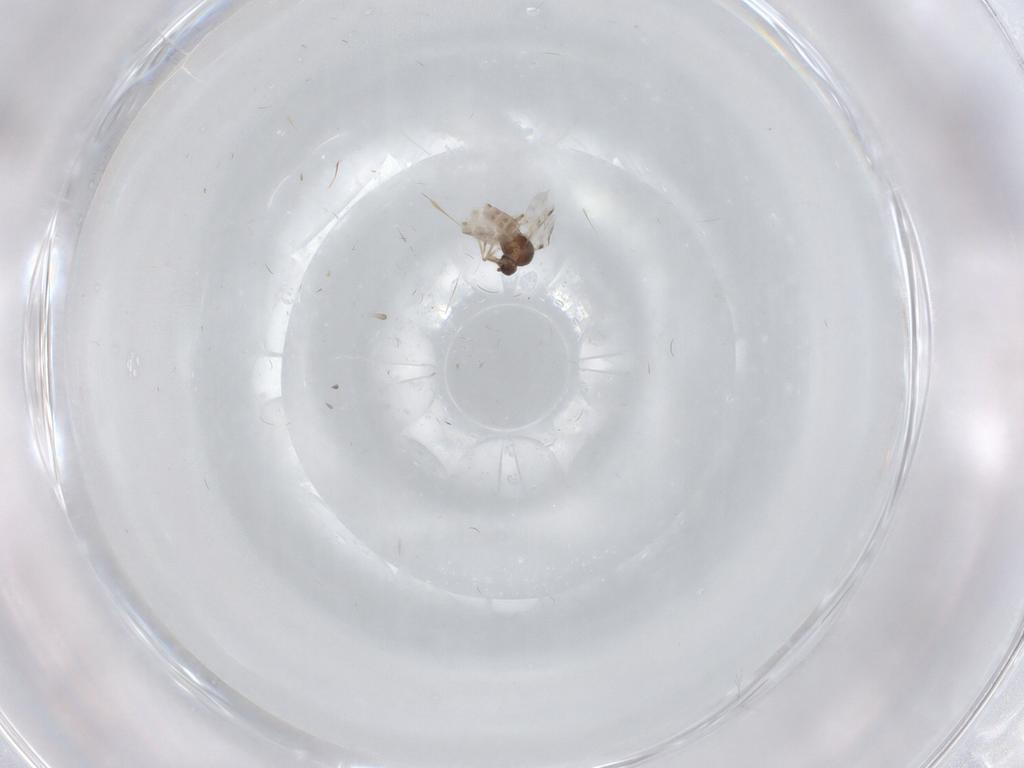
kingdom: Animalia
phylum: Arthropoda
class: Insecta
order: Diptera
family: Psychodidae
